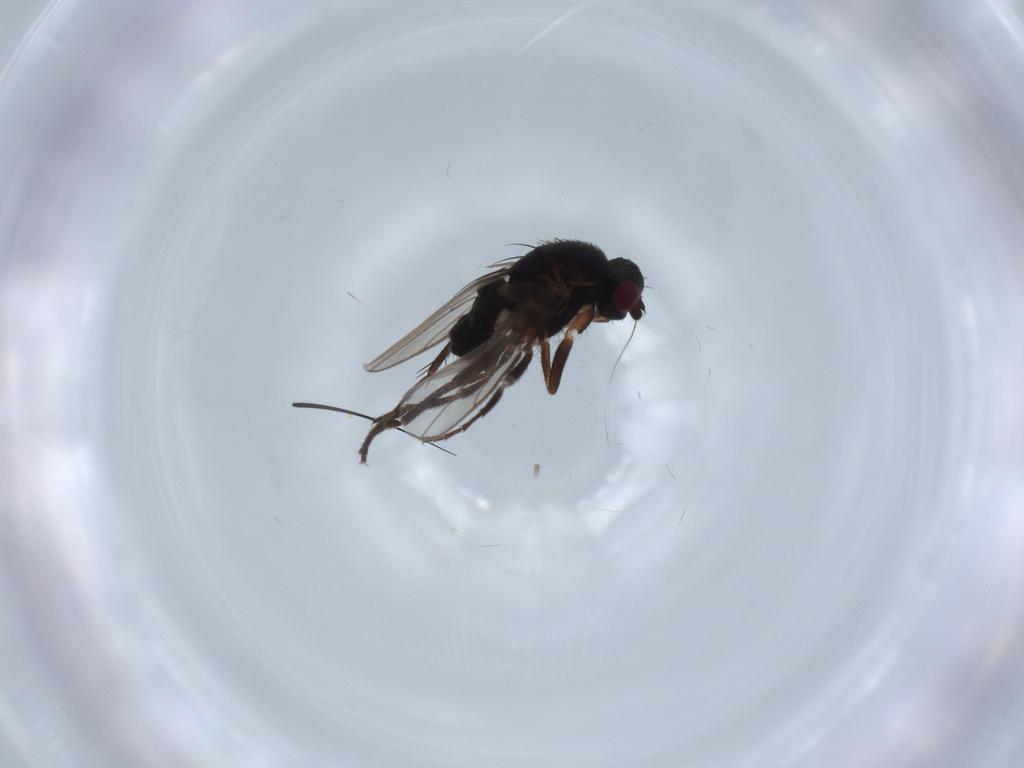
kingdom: Animalia
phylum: Arthropoda
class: Insecta
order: Diptera
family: Sphaeroceridae
